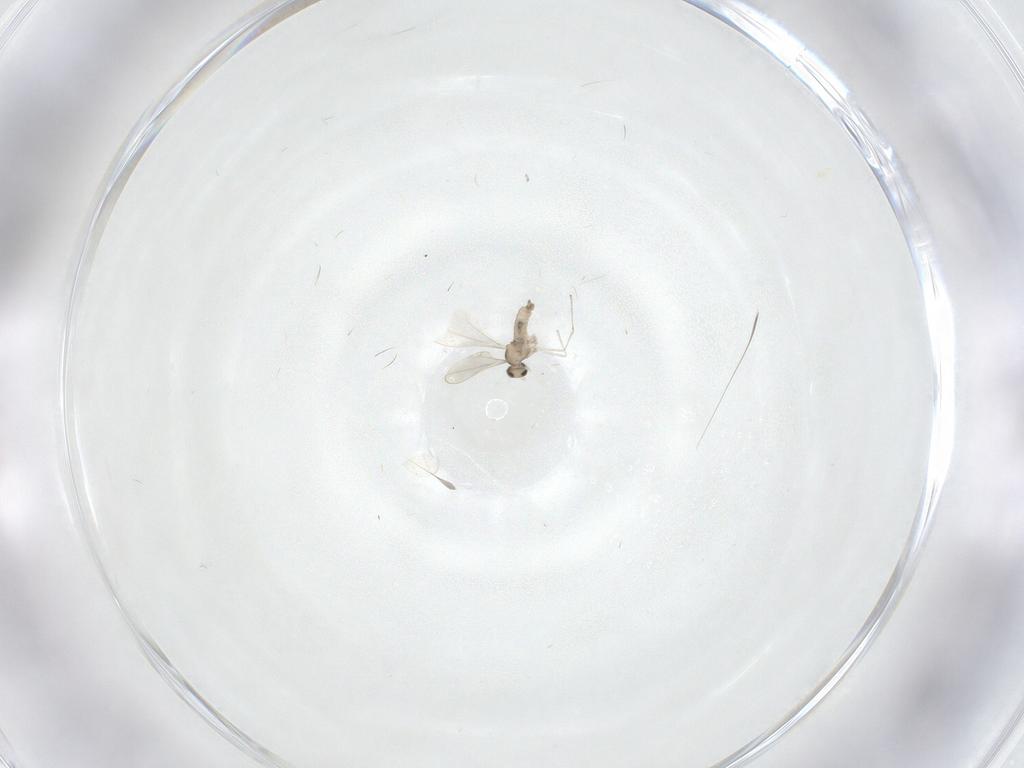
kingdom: Animalia
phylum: Arthropoda
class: Insecta
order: Diptera
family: Cecidomyiidae
